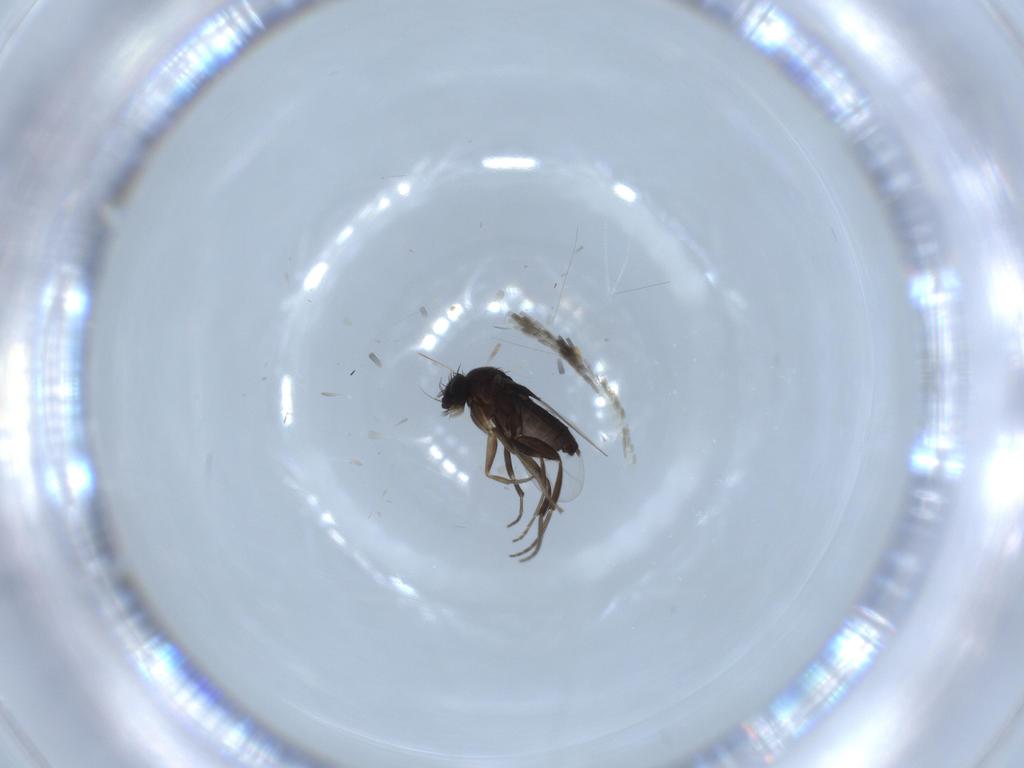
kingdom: Animalia
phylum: Arthropoda
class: Insecta
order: Diptera
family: Phoridae
